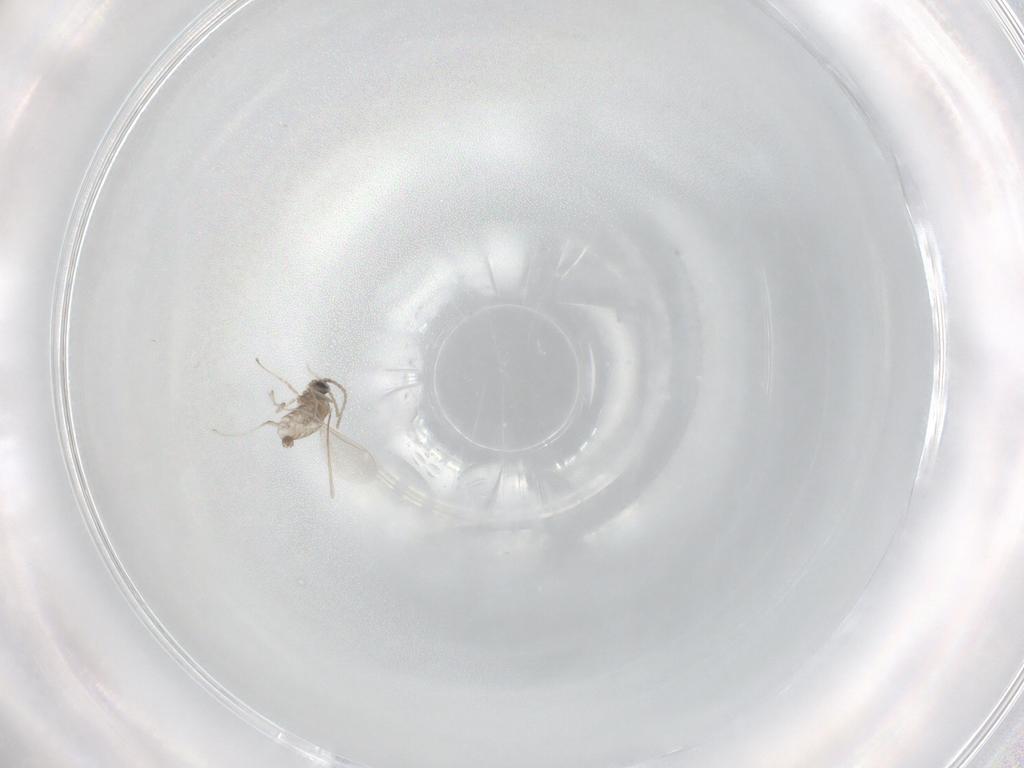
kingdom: Animalia
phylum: Arthropoda
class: Insecta
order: Diptera
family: Cecidomyiidae
